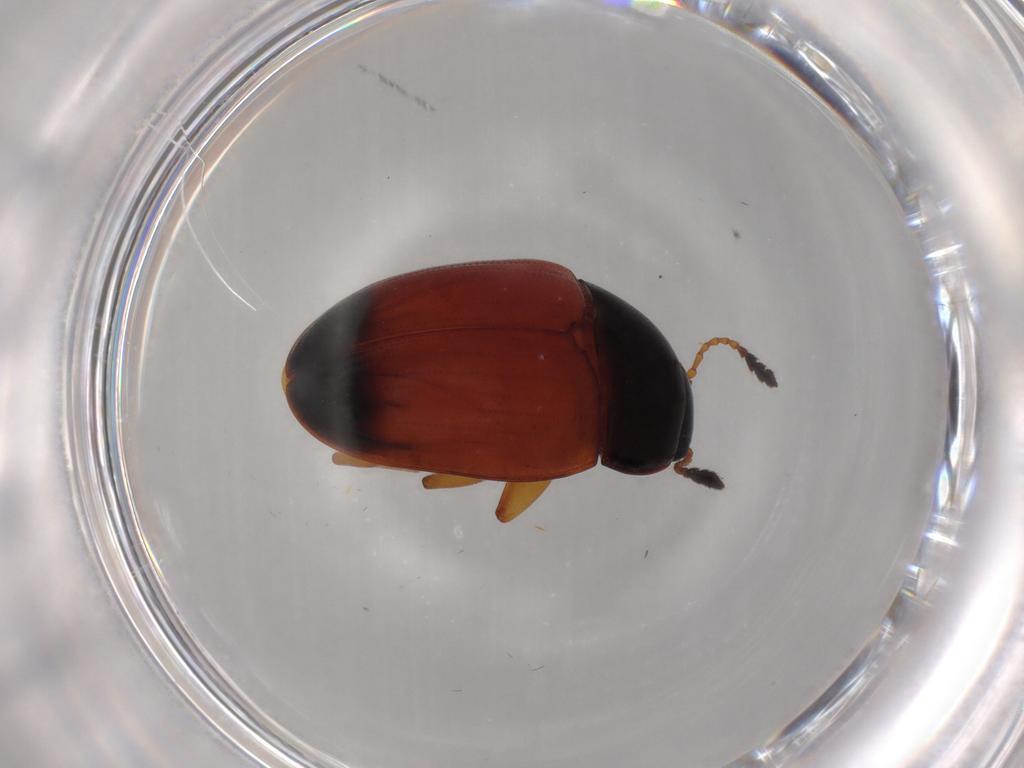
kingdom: Animalia
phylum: Arthropoda
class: Insecta
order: Coleoptera
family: Erotylidae
